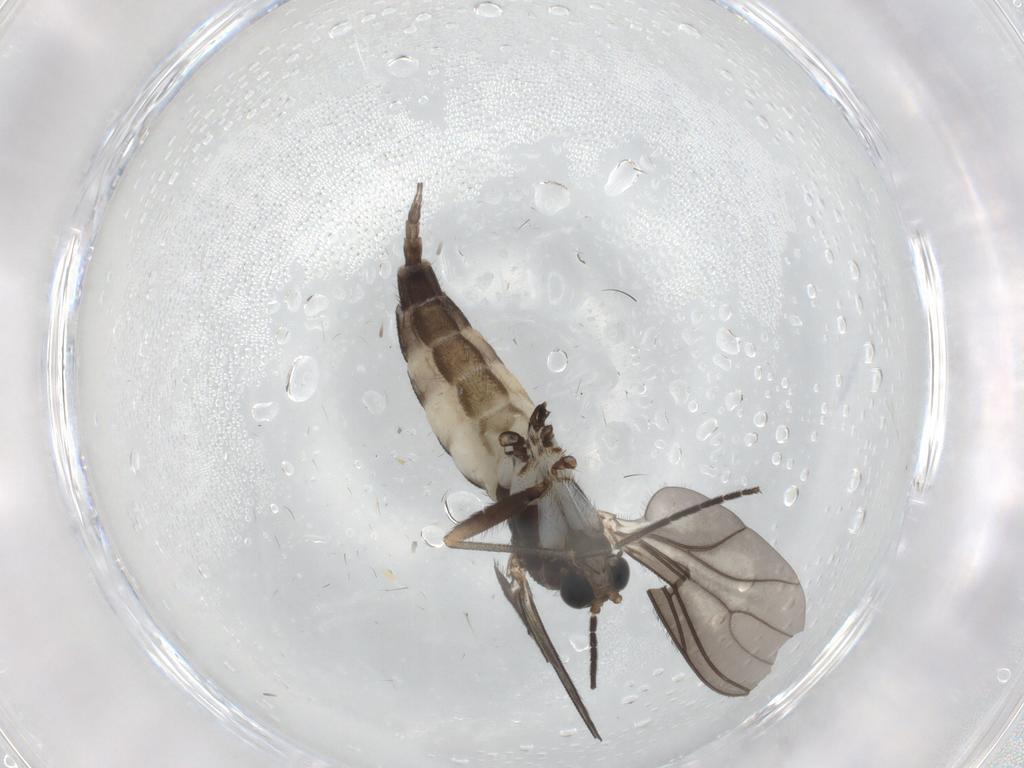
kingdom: Animalia
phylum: Arthropoda
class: Insecta
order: Diptera
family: Sciaridae
